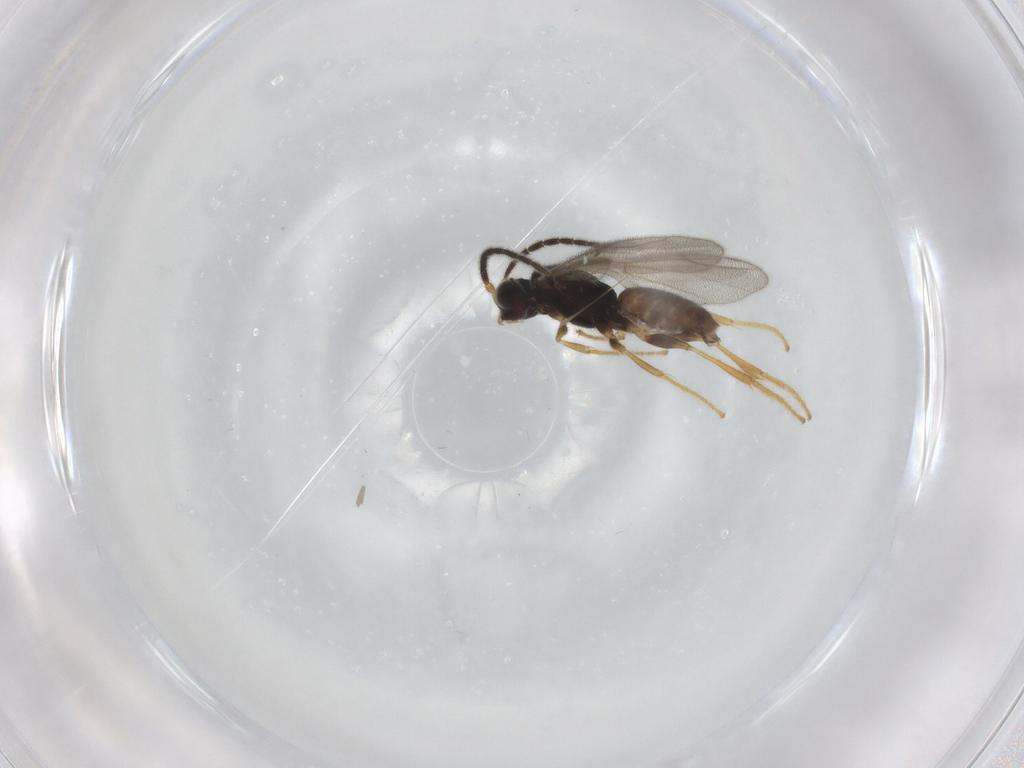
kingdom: Animalia
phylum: Arthropoda
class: Insecta
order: Hymenoptera
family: Dryinidae
